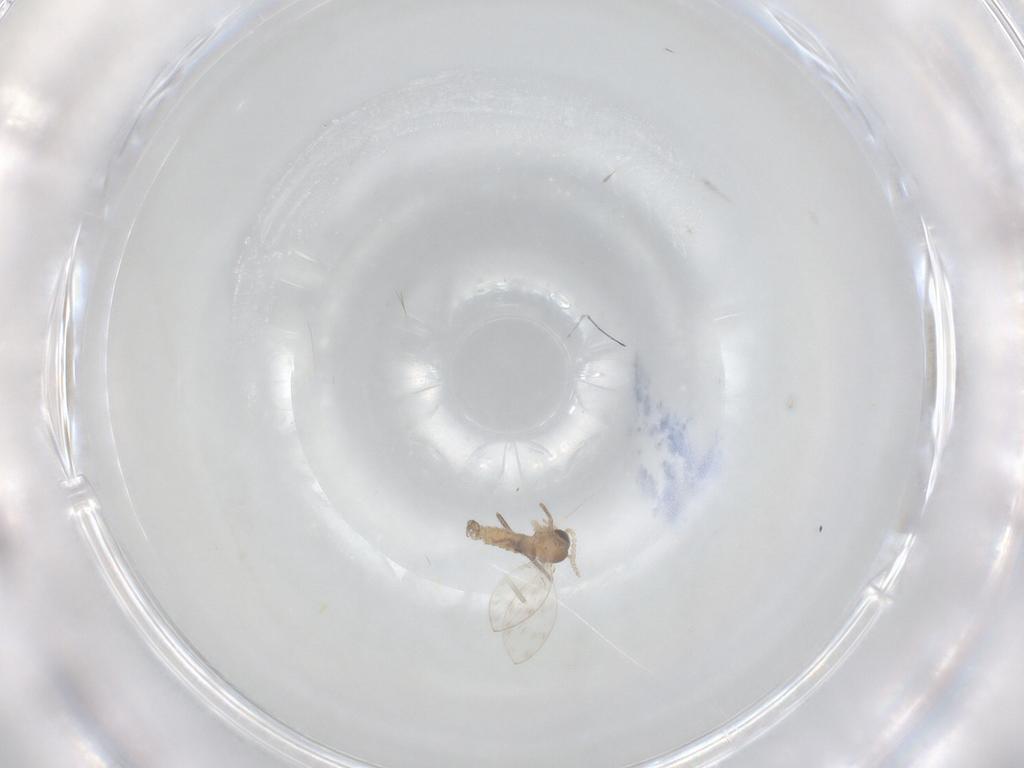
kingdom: Animalia
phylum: Arthropoda
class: Insecta
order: Diptera
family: Sciaridae
